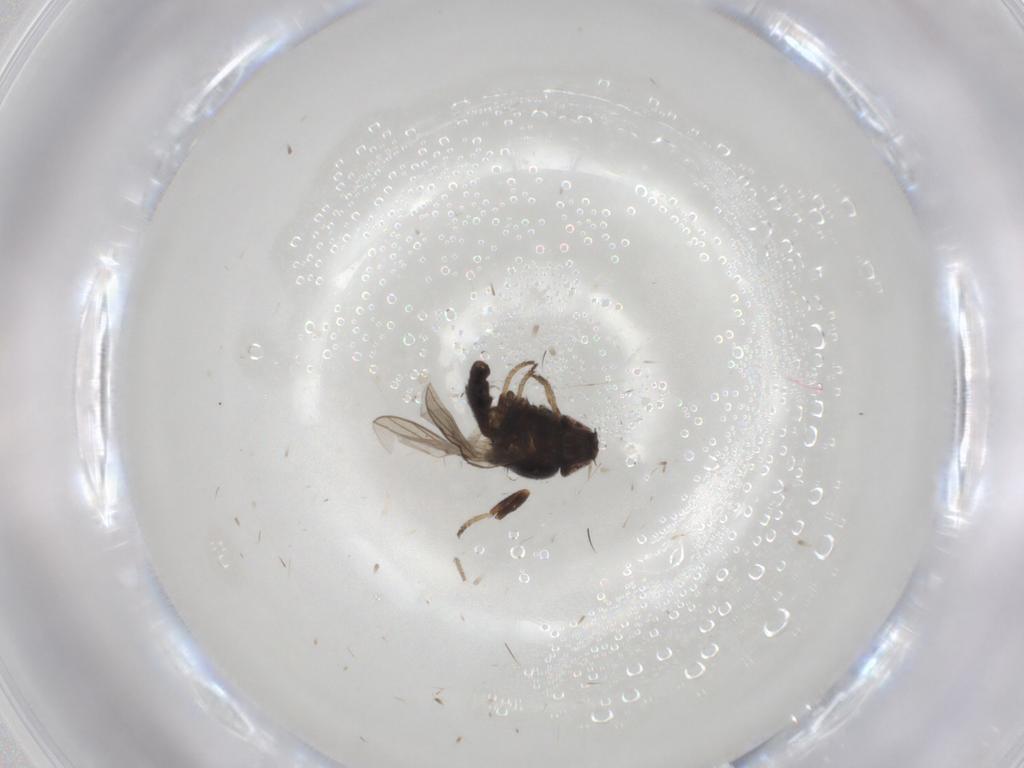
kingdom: Animalia
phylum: Arthropoda
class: Insecta
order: Diptera
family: Chloropidae
